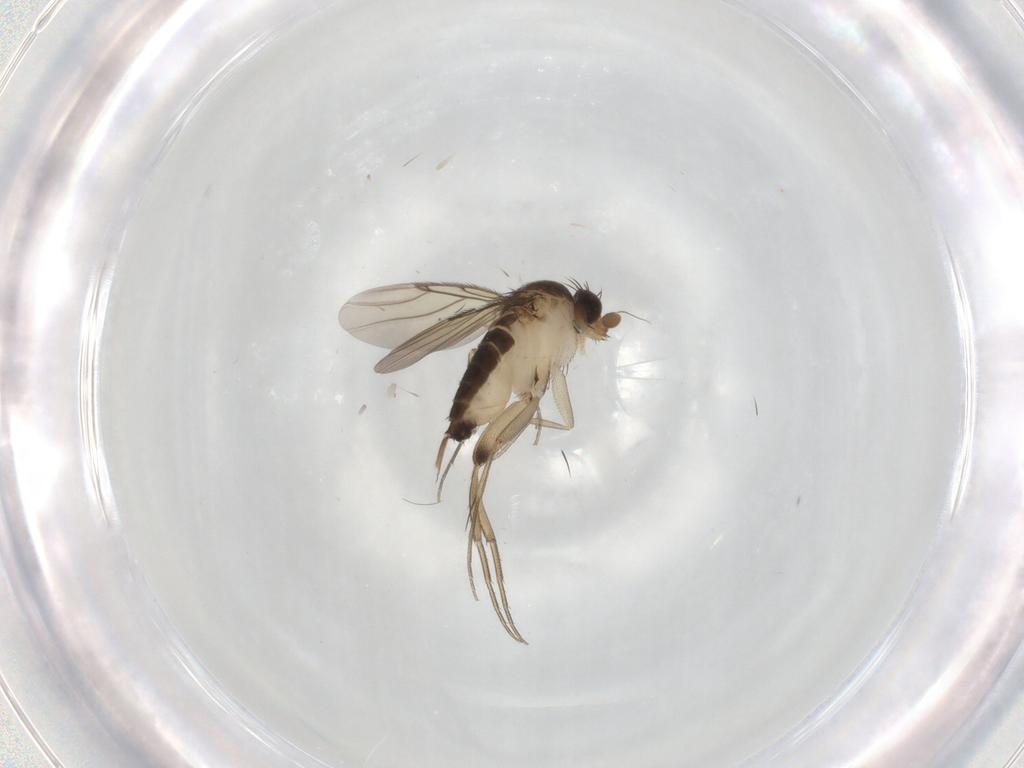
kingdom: Animalia
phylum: Arthropoda
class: Insecta
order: Diptera
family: Phoridae
